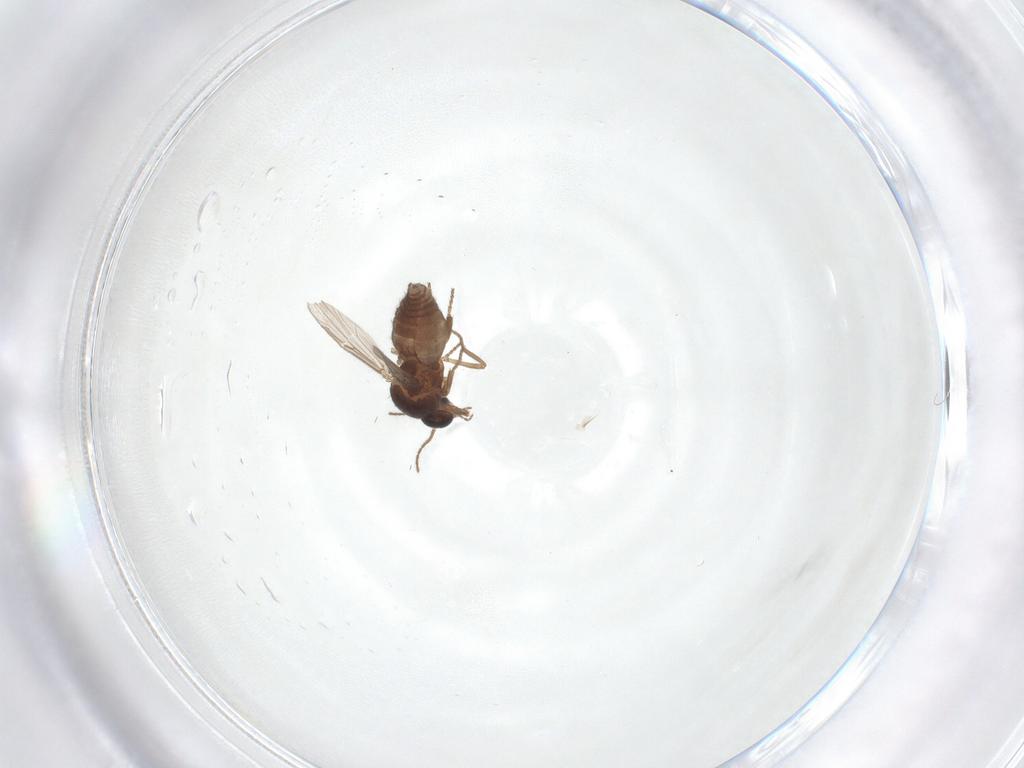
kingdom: Animalia
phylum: Arthropoda
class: Insecta
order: Diptera
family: Ceratopogonidae
